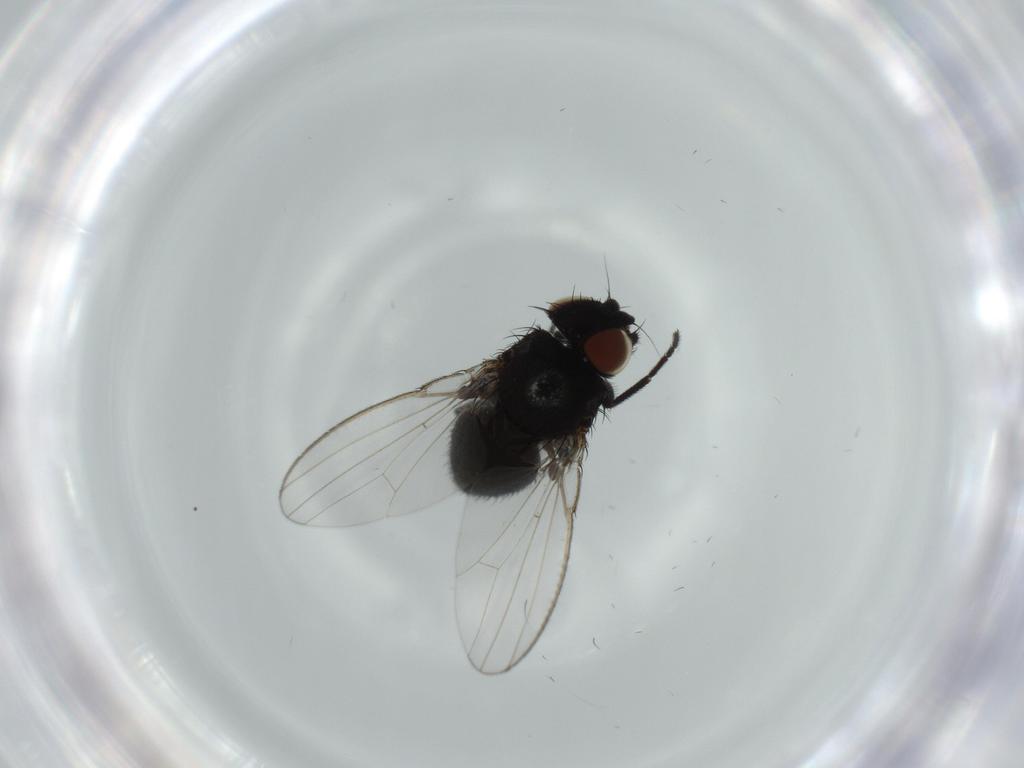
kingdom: Animalia
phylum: Arthropoda
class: Insecta
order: Diptera
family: Milichiidae
